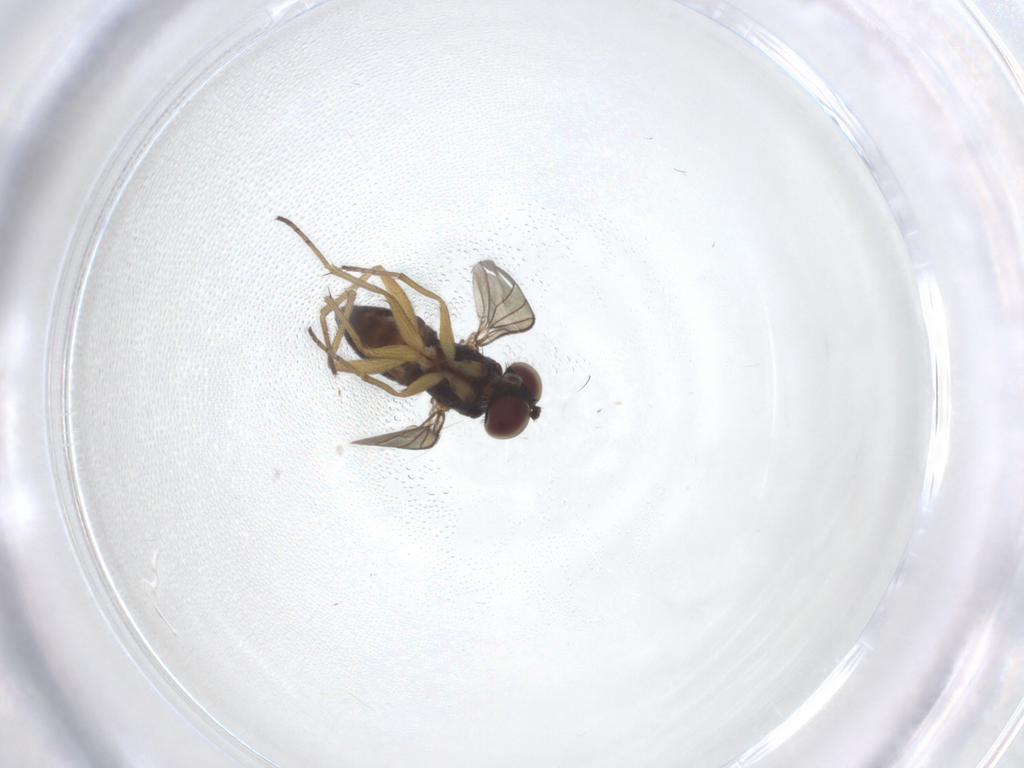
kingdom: Animalia
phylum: Arthropoda
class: Insecta
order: Diptera
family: Dolichopodidae
